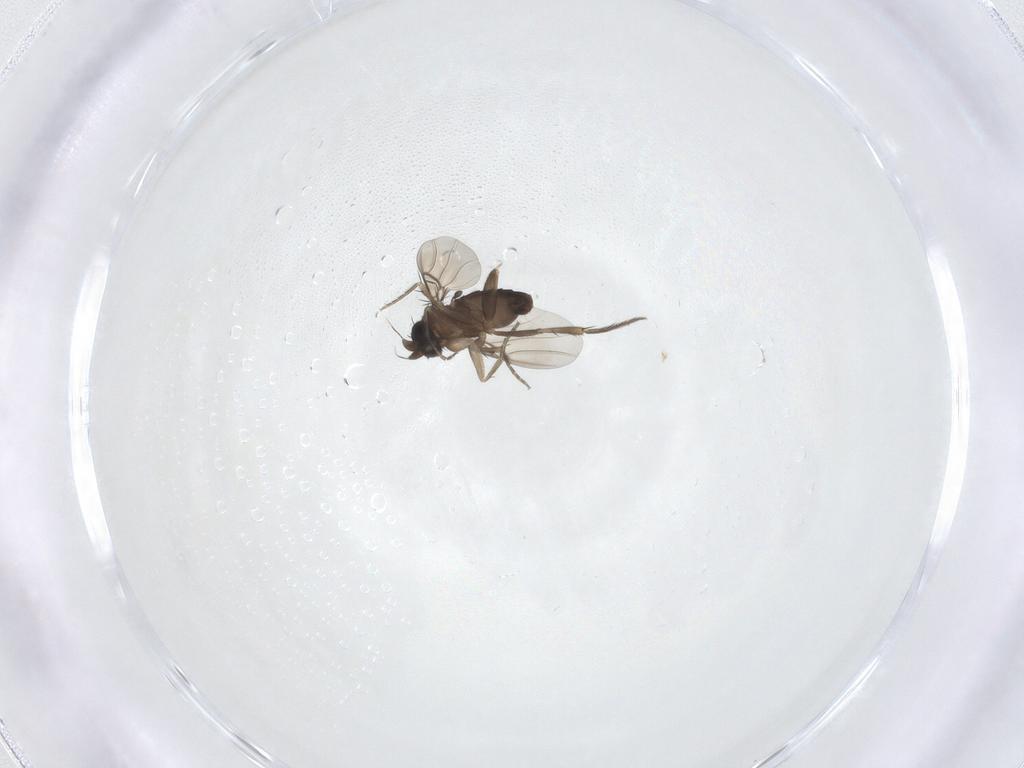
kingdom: Animalia
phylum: Arthropoda
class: Insecta
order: Diptera
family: Phoridae
